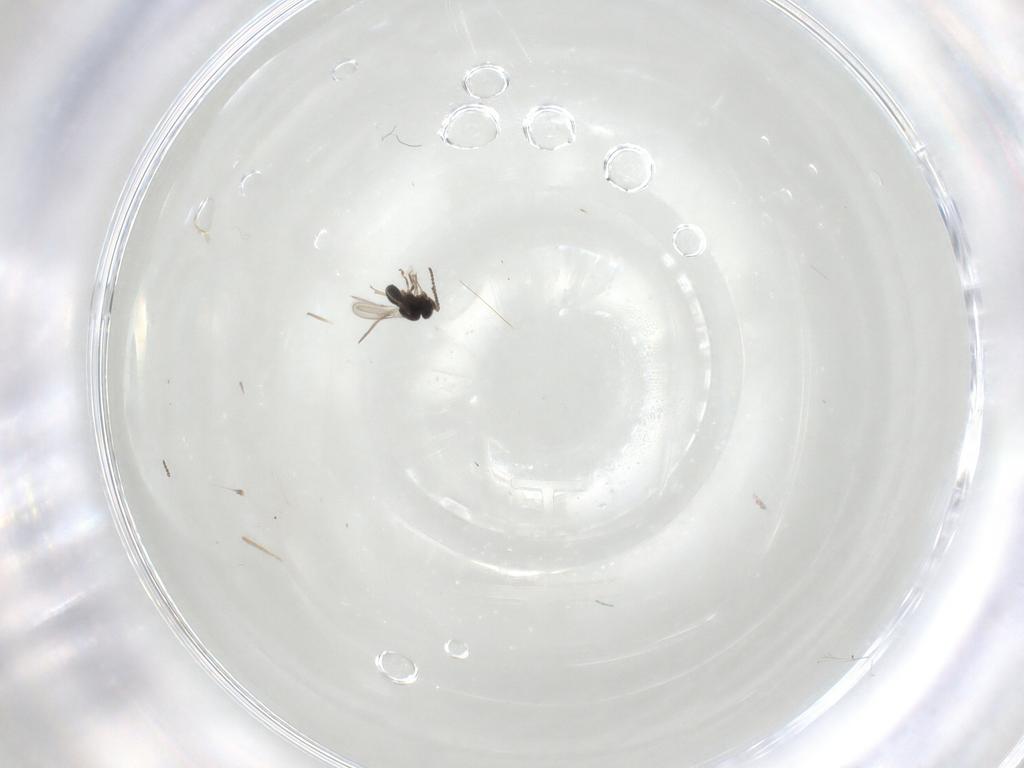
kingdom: Animalia
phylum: Arthropoda
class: Insecta
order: Hymenoptera
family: Scelionidae
